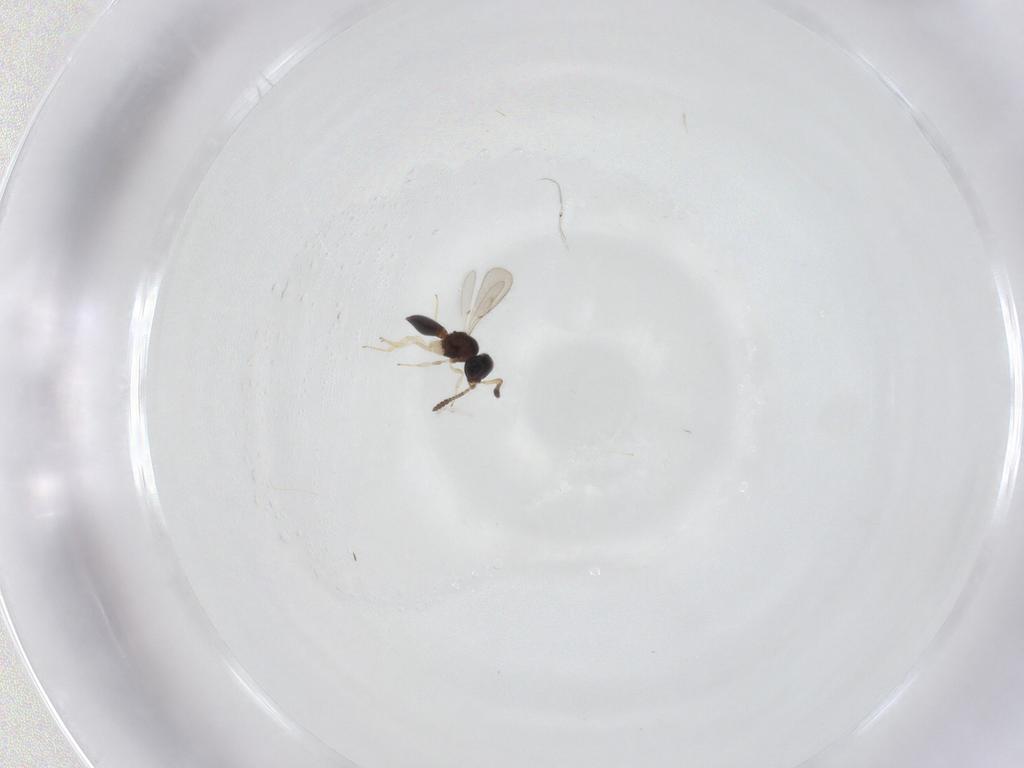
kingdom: Animalia
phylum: Arthropoda
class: Insecta
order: Hymenoptera
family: Scelionidae
